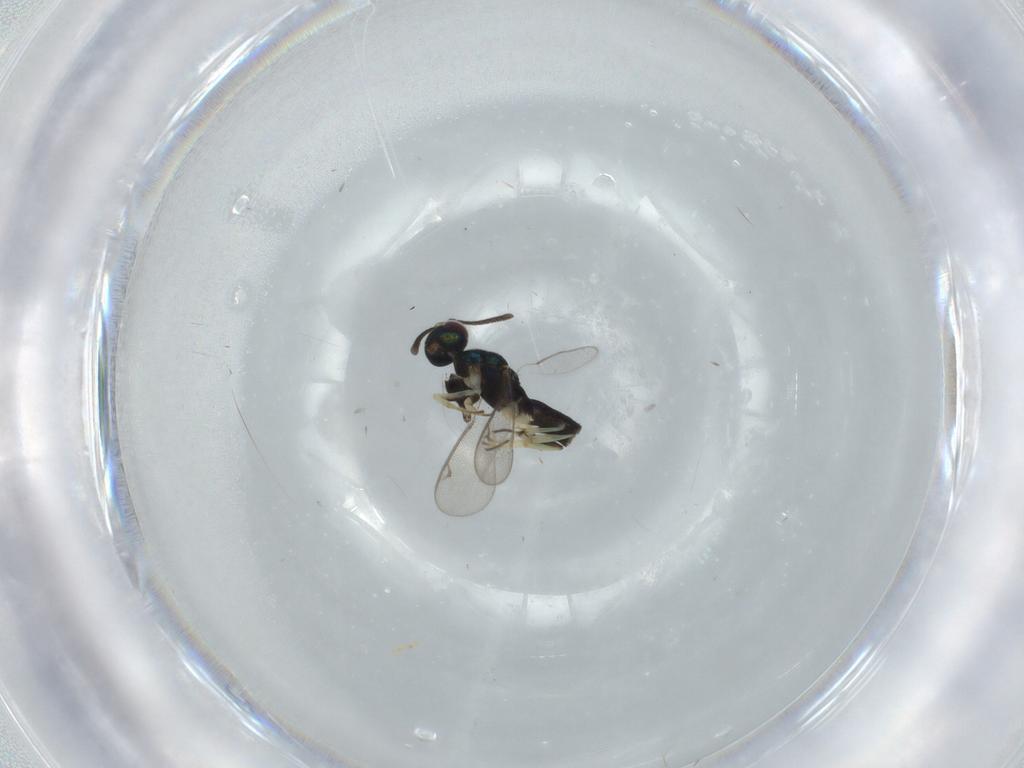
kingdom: Animalia
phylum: Arthropoda
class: Insecta
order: Hymenoptera
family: Eupelmidae
